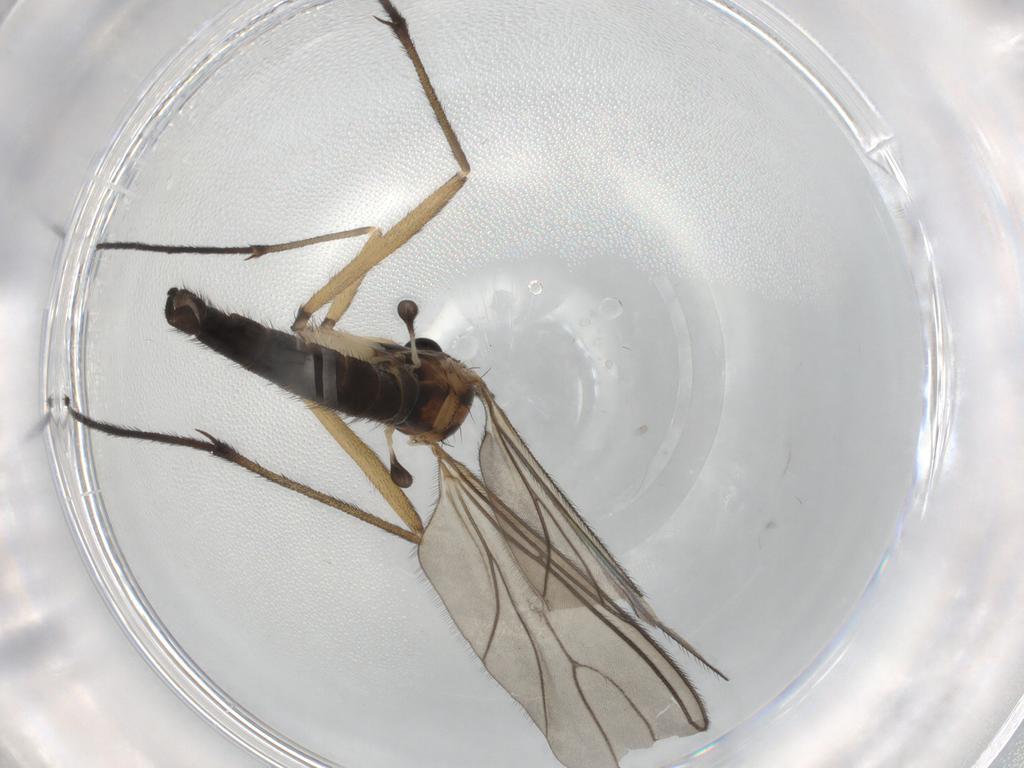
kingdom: Animalia
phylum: Arthropoda
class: Insecta
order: Diptera
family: Sciaridae
